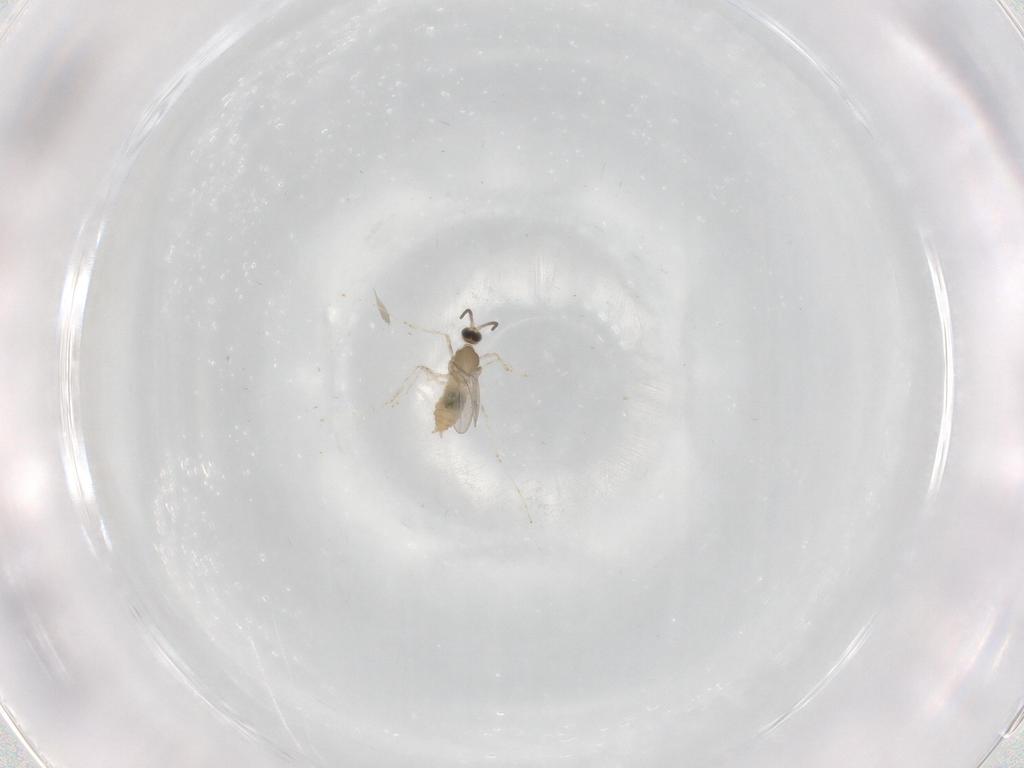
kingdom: Animalia
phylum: Arthropoda
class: Insecta
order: Diptera
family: Cecidomyiidae
